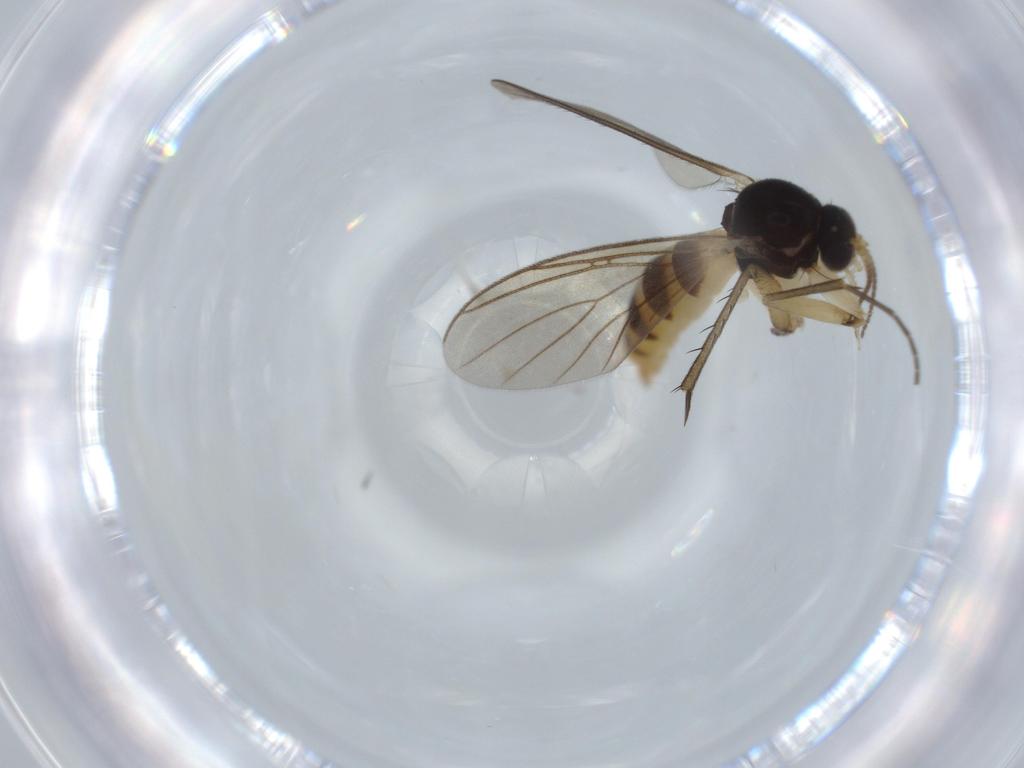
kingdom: Animalia
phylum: Arthropoda
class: Insecta
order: Diptera
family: Mycetophilidae
